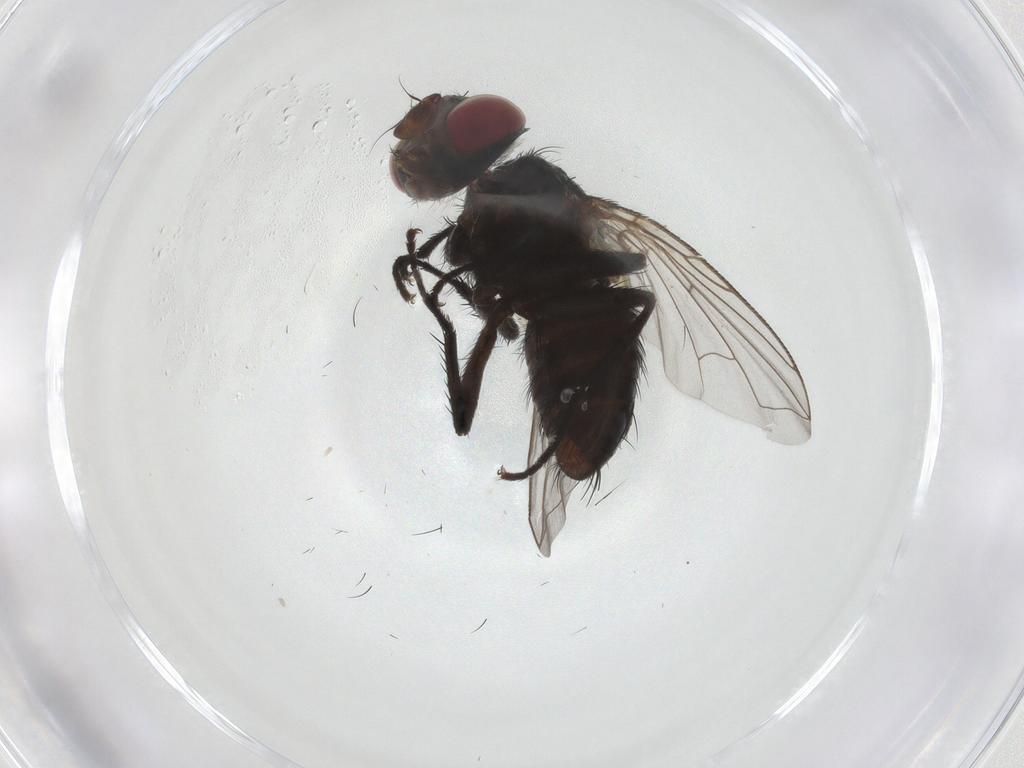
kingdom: Animalia
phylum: Arthropoda
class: Insecta
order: Diptera
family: Tachinidae
